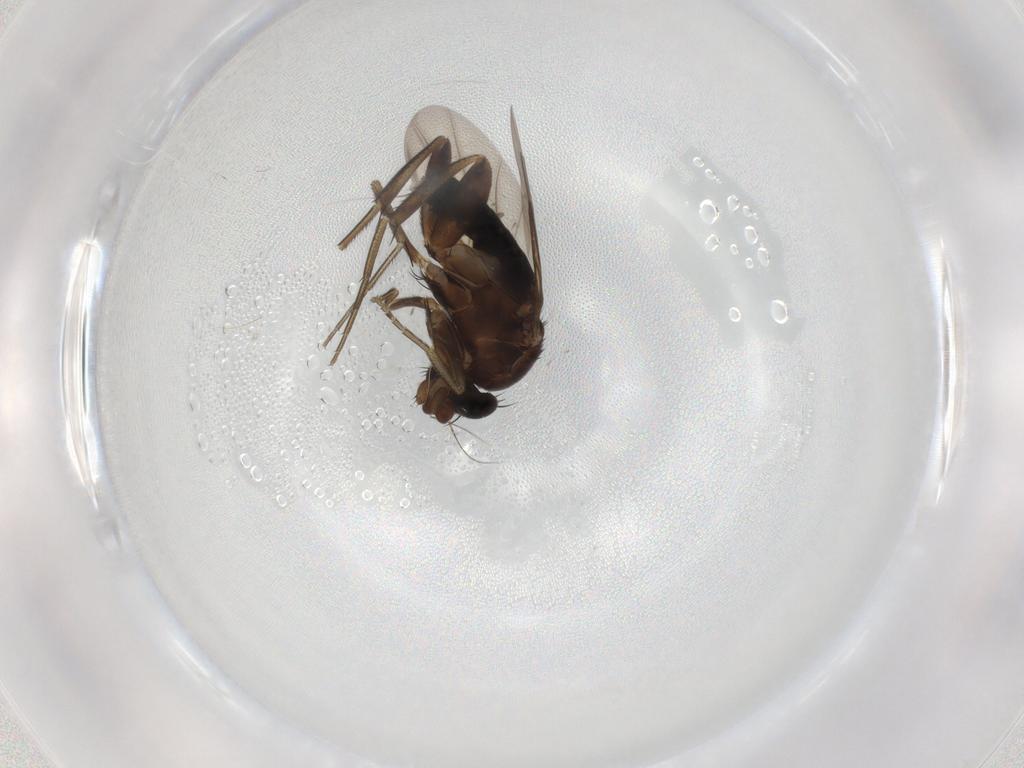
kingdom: Animalia
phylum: Arthropoda
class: Insecta
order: Diptera
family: Phoridae
